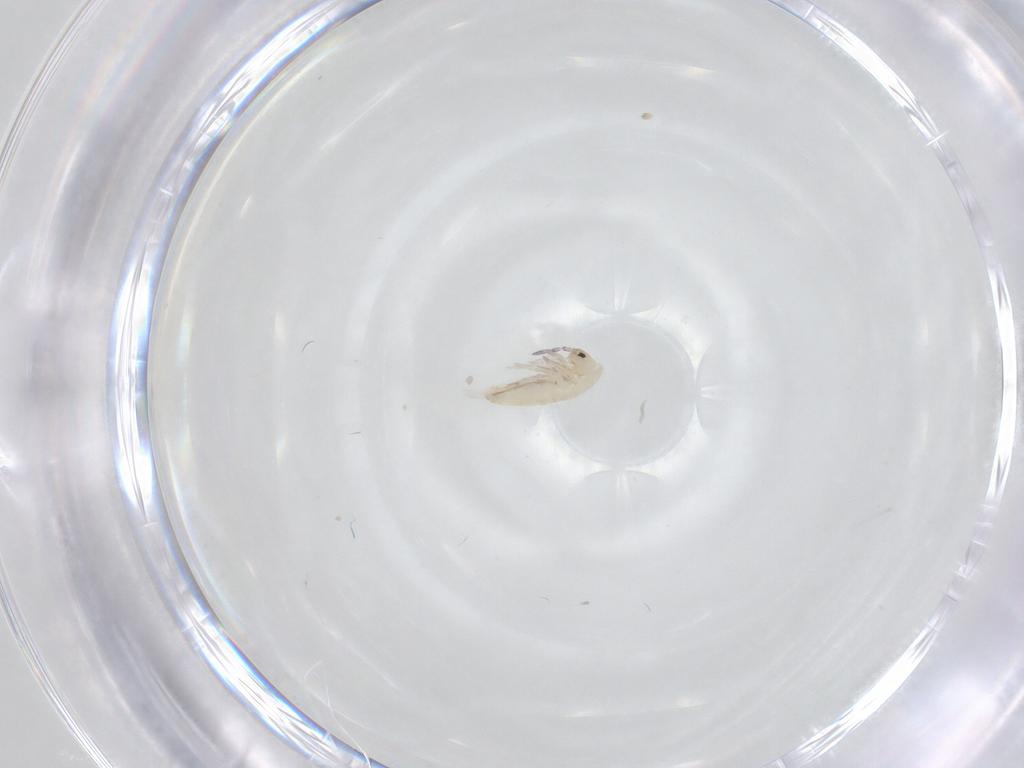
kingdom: Animalia
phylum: Arthropoda
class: Collembola
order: Entomobryomorpha
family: Entomobryidae
